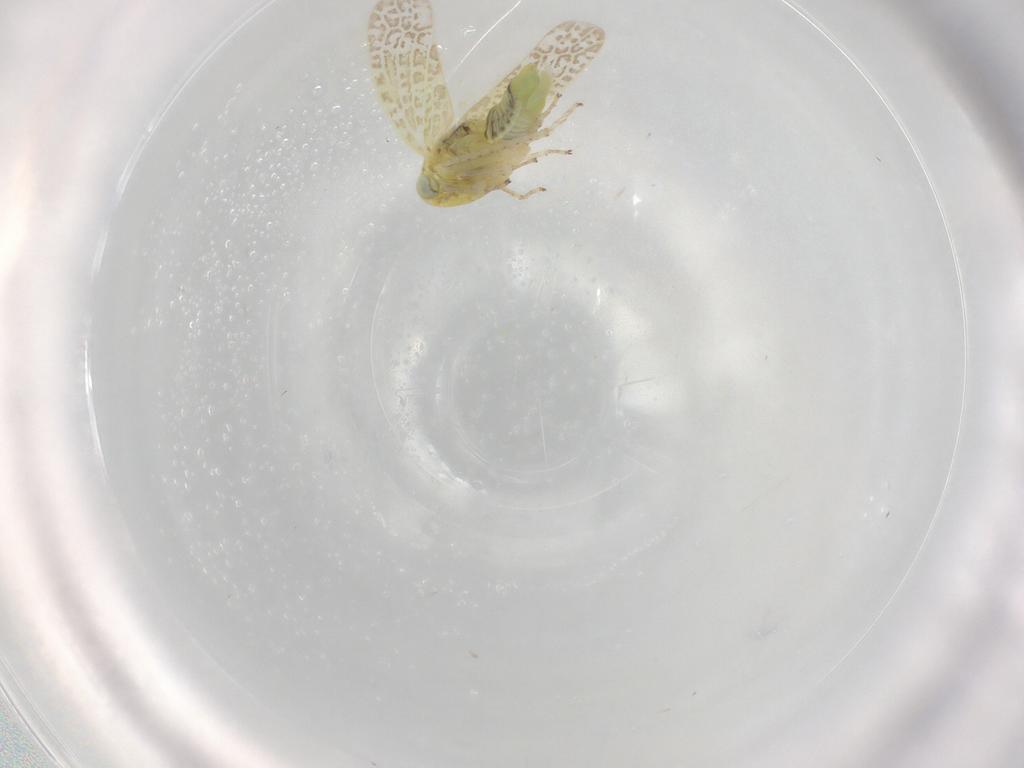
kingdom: Animalia
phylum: Arthropoda
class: Insecta
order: Hemiptera
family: Cicadellidae
